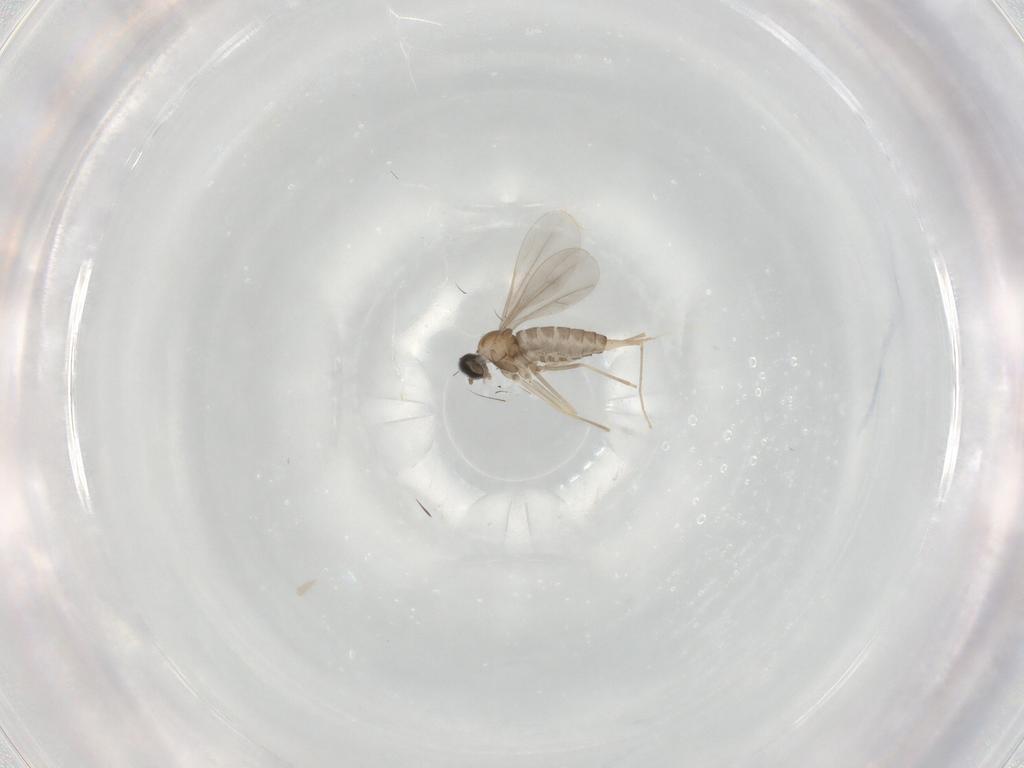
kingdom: Animalia
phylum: Arthropoda
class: Insecta
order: Diptera
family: Cecidomyiidae
